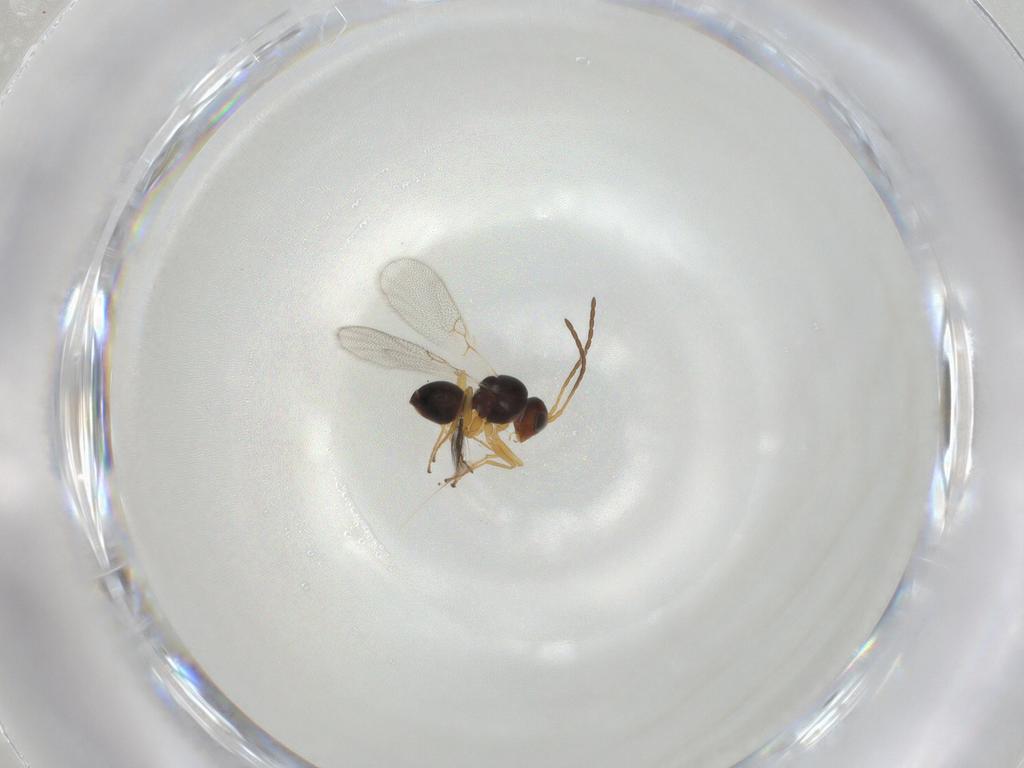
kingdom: Animalia
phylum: Arthropoda
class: Insecta
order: Hymenoptera
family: Figitidae
